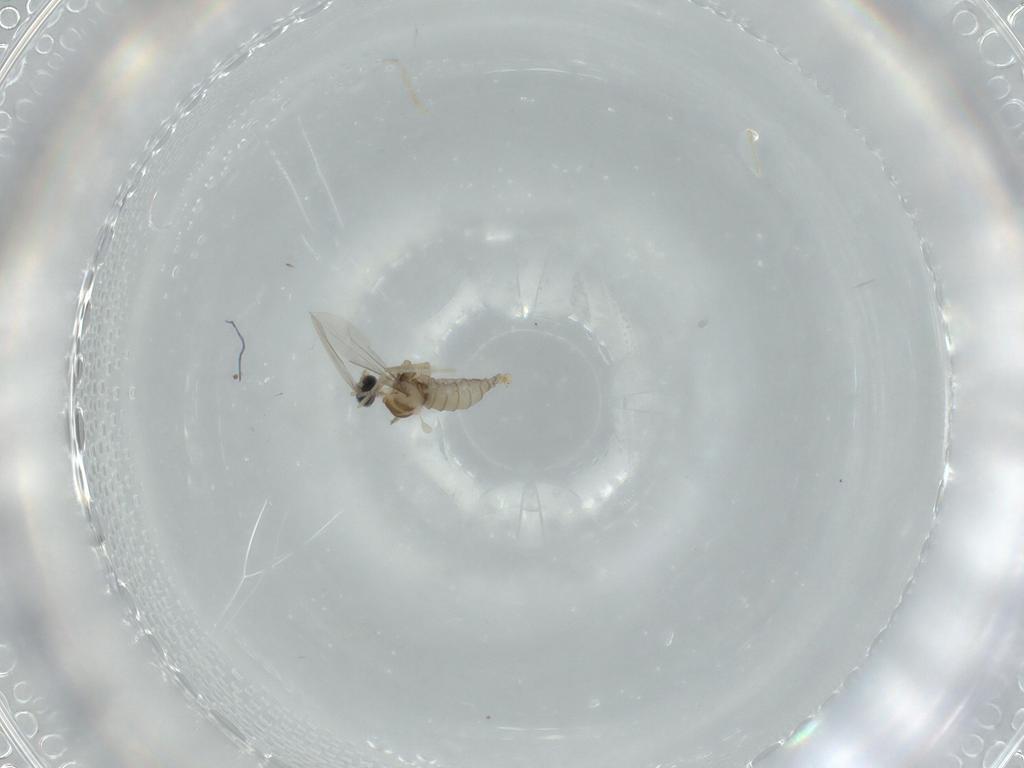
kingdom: Animalia
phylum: Arthropoda
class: Insecta
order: Diptera
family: Cecidomyiidae
